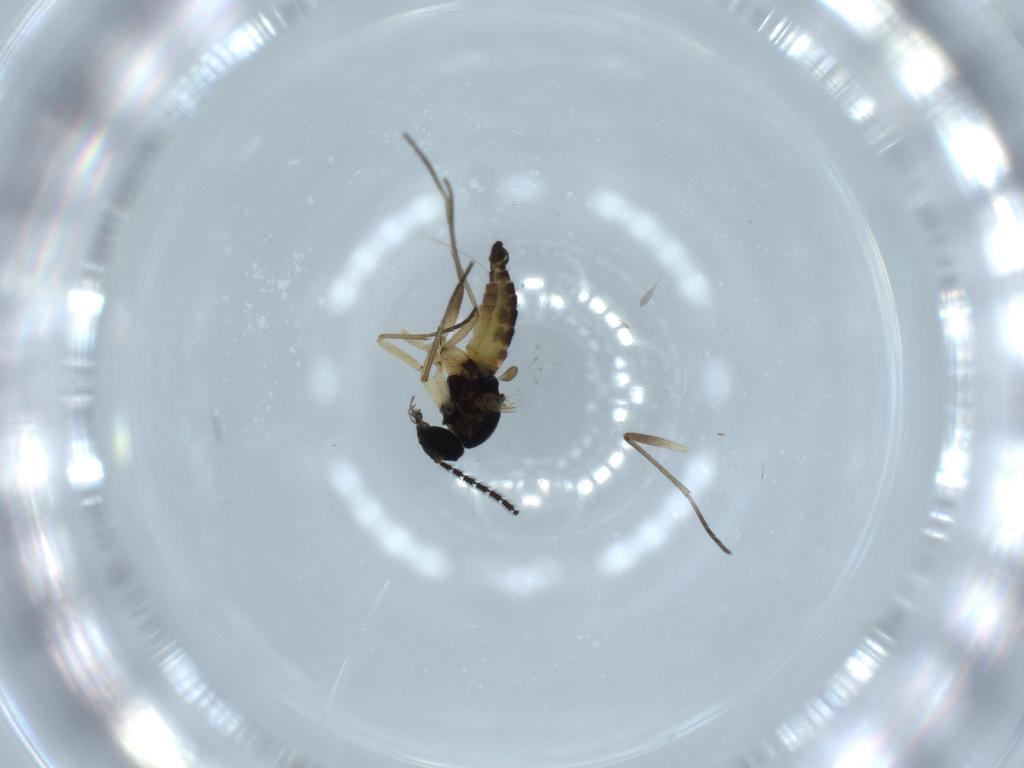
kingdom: Animalia
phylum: Arthropoda
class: Insecta
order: Diptera
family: Sciaridae
